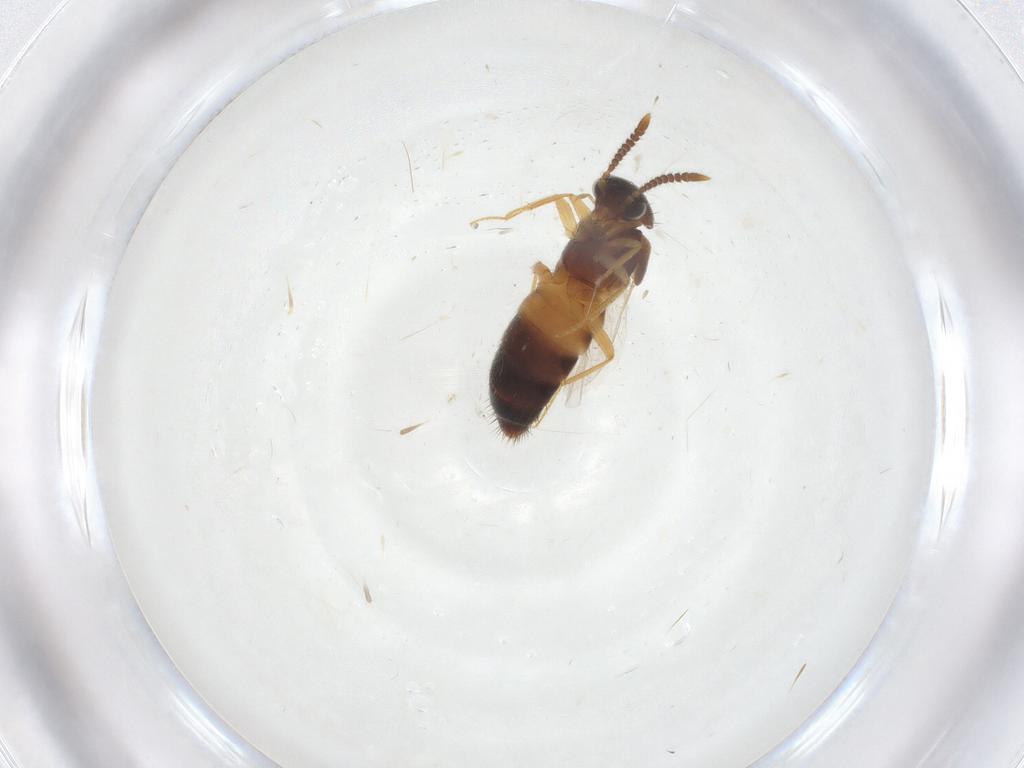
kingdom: Animalia
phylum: Arthropoda
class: Insecta
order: Coleoptera
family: Staphylinidae
